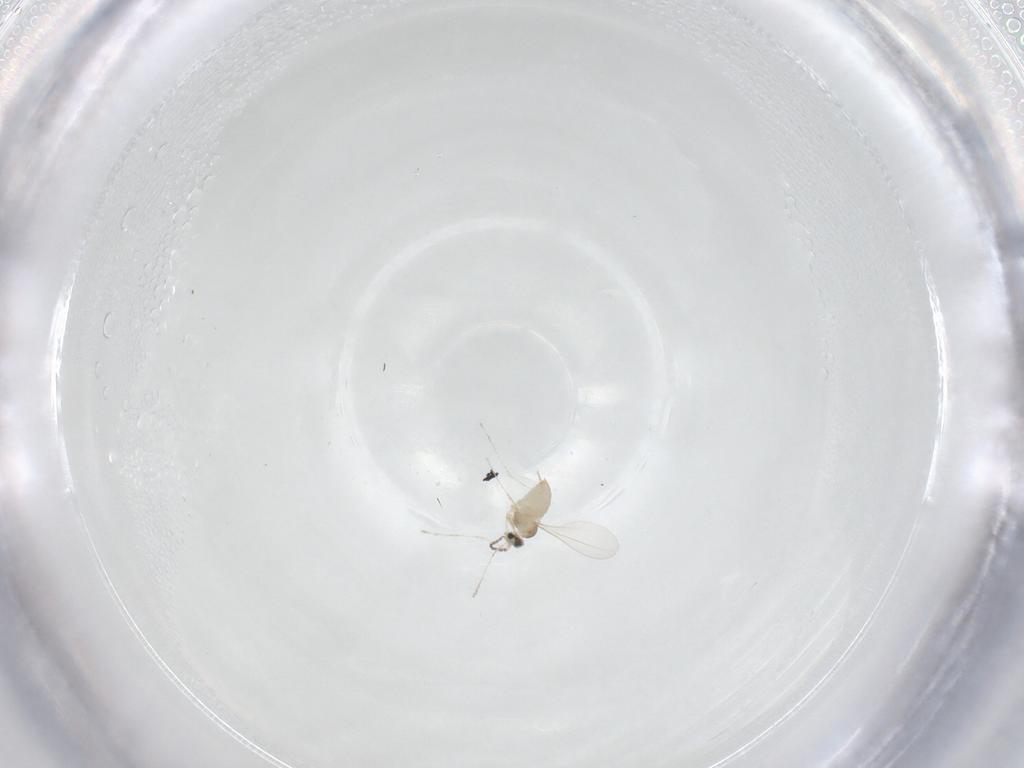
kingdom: Animalia
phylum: Arthropoda
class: Insecta
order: Diptera
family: Cecidomyiidae
